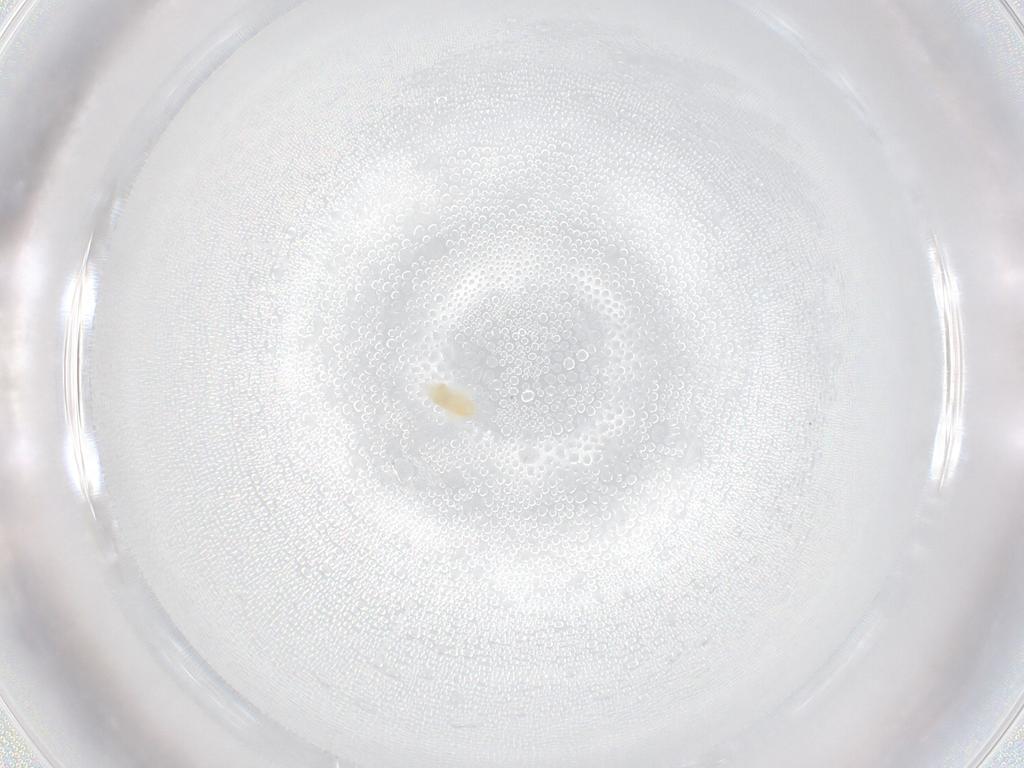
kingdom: Animalia
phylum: Arthropoda
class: Arachnida
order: Trombidiformes
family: Eupodidae
